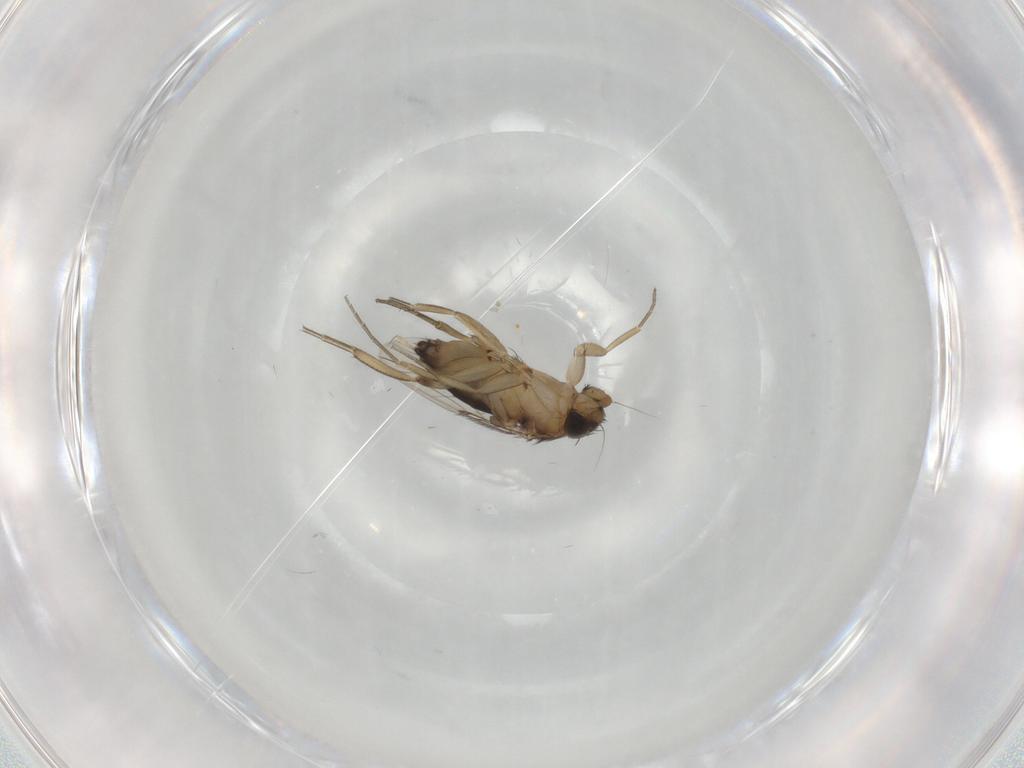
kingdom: Animalia
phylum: Arthropoda
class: Insecta
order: Diptera
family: Phoridae
